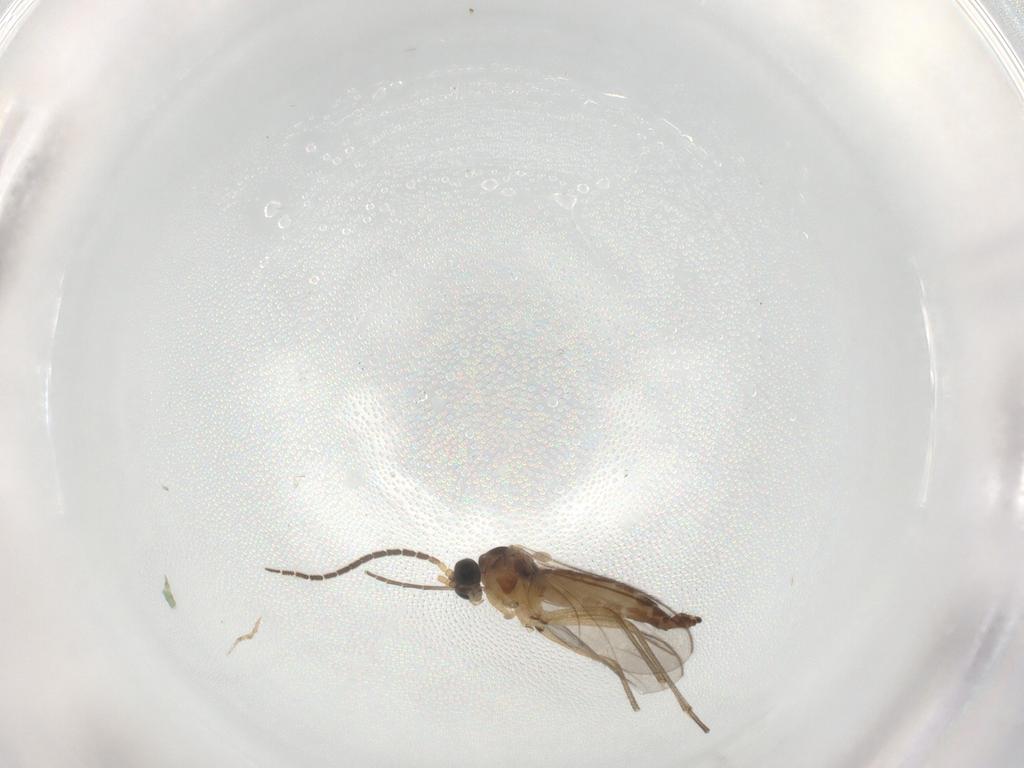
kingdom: Animalia
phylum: Arthropoda
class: Insecta
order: Diptera
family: Sciaridae
